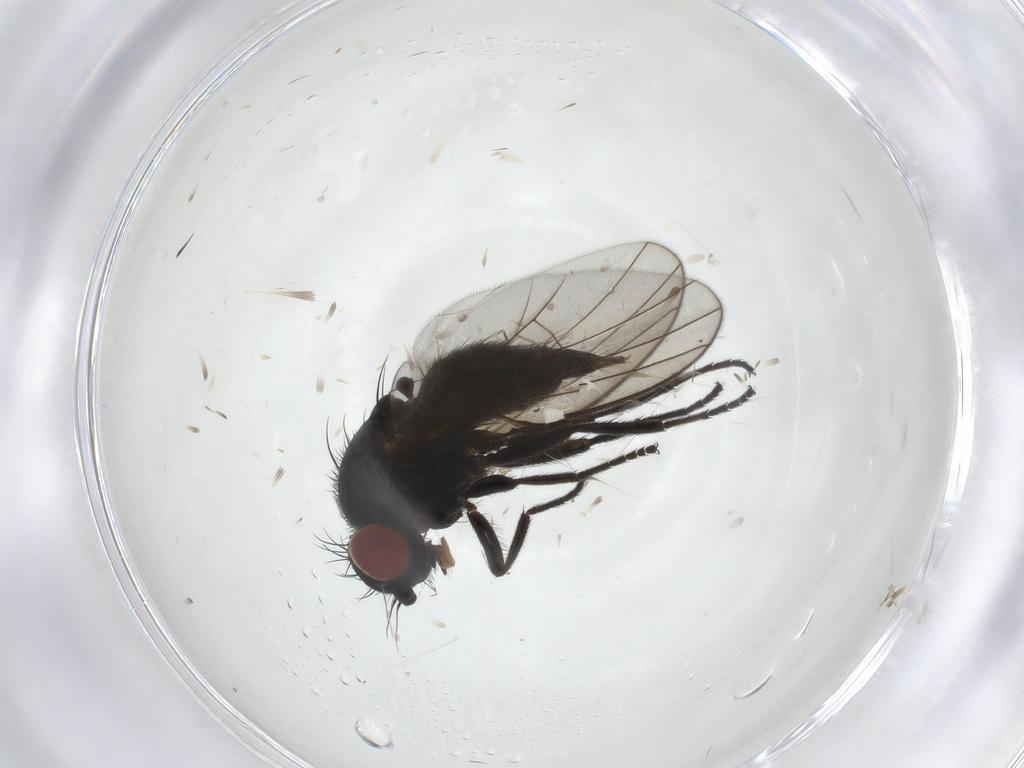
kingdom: Animalia
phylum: Arthropoda
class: Insecta
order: Diptera
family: Scathophagidae
